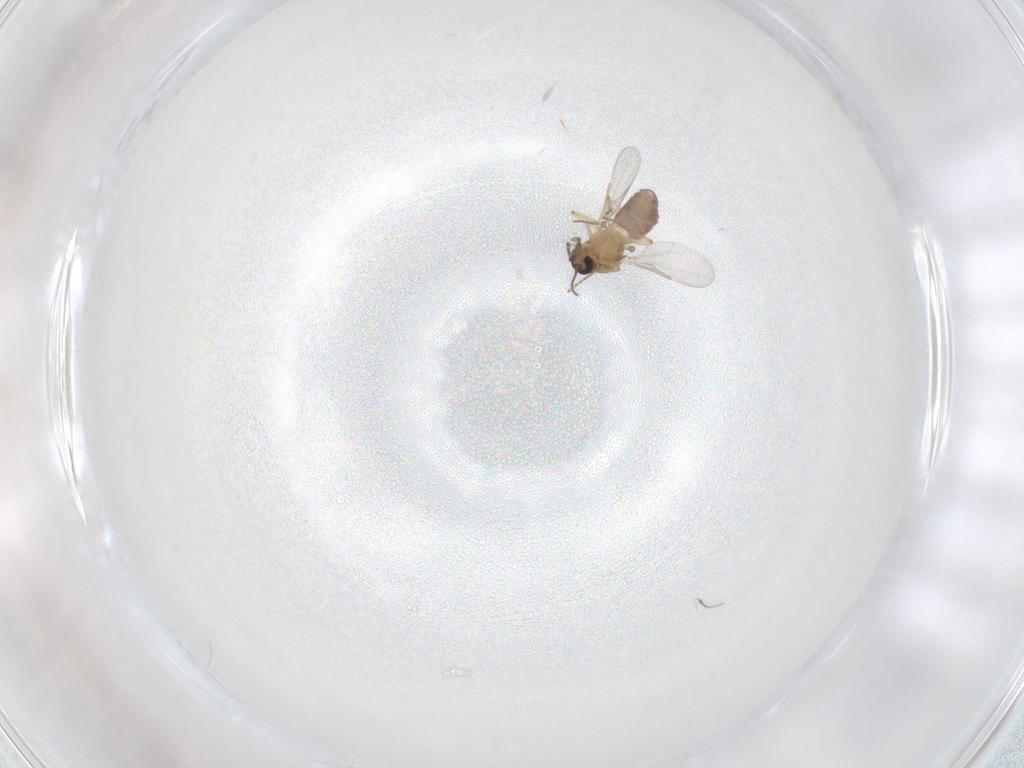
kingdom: Animalia
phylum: Arthropoda
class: Insecta
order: Diptera
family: Ceratopogonidae
